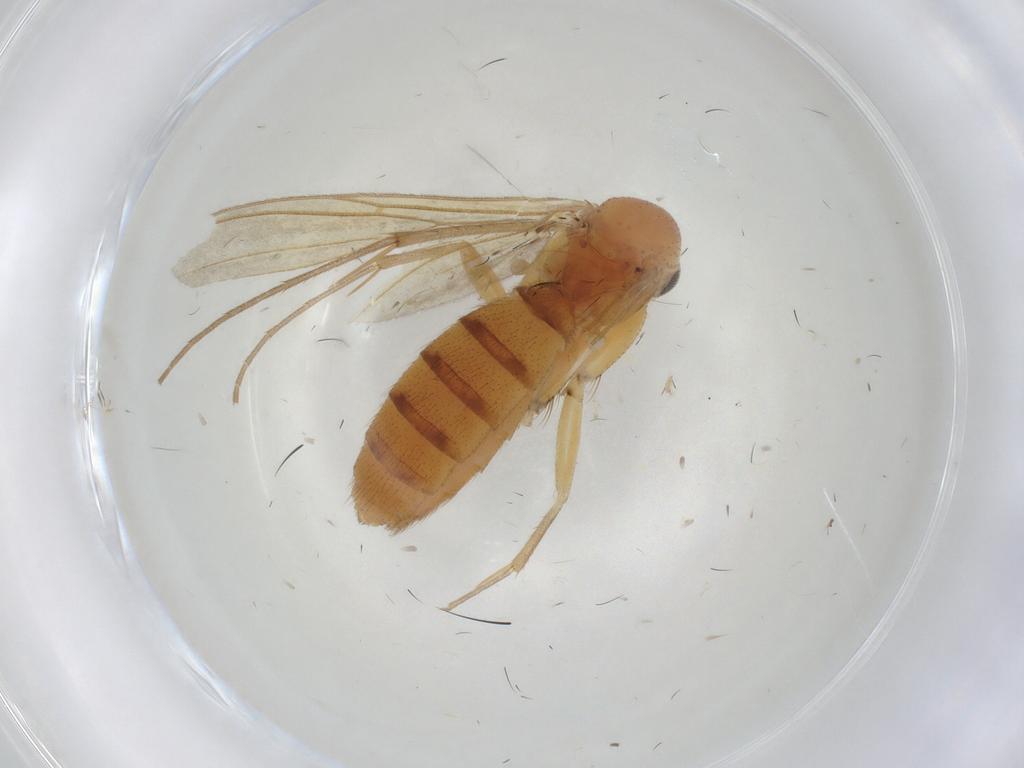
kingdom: Animalia
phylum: Arthropoda
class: Insecta
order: Diptera
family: Mycetophilidae
